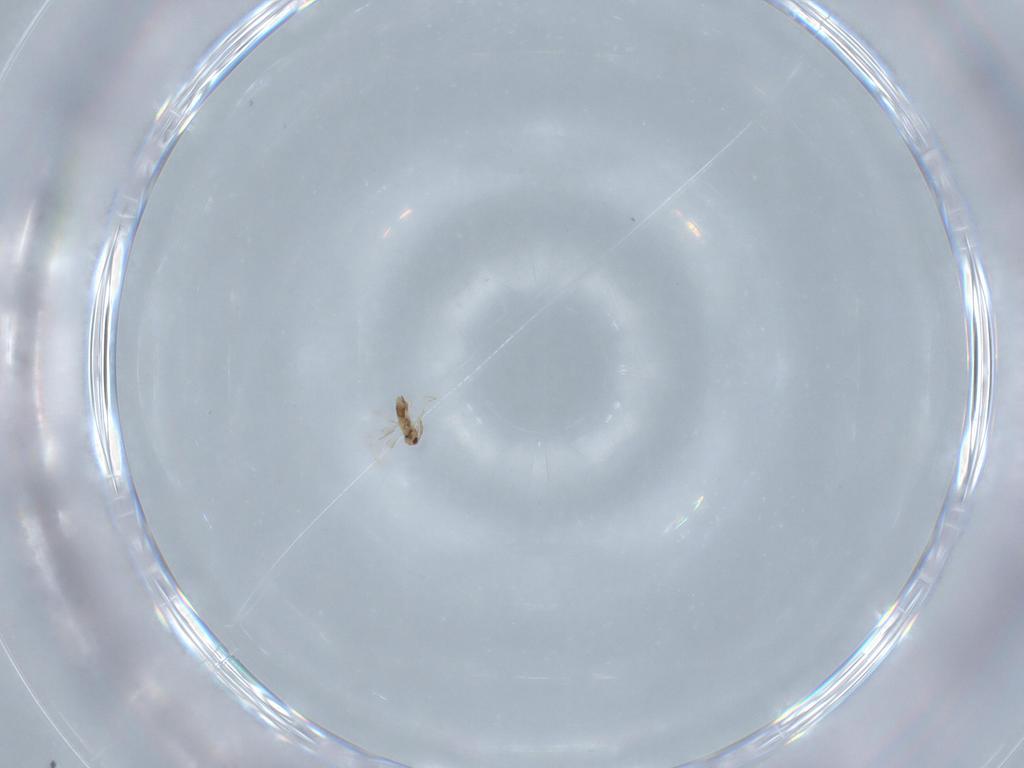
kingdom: Animalia
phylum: Arthropoda
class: Insecta
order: Hymenoptera
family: Aphelinidae
